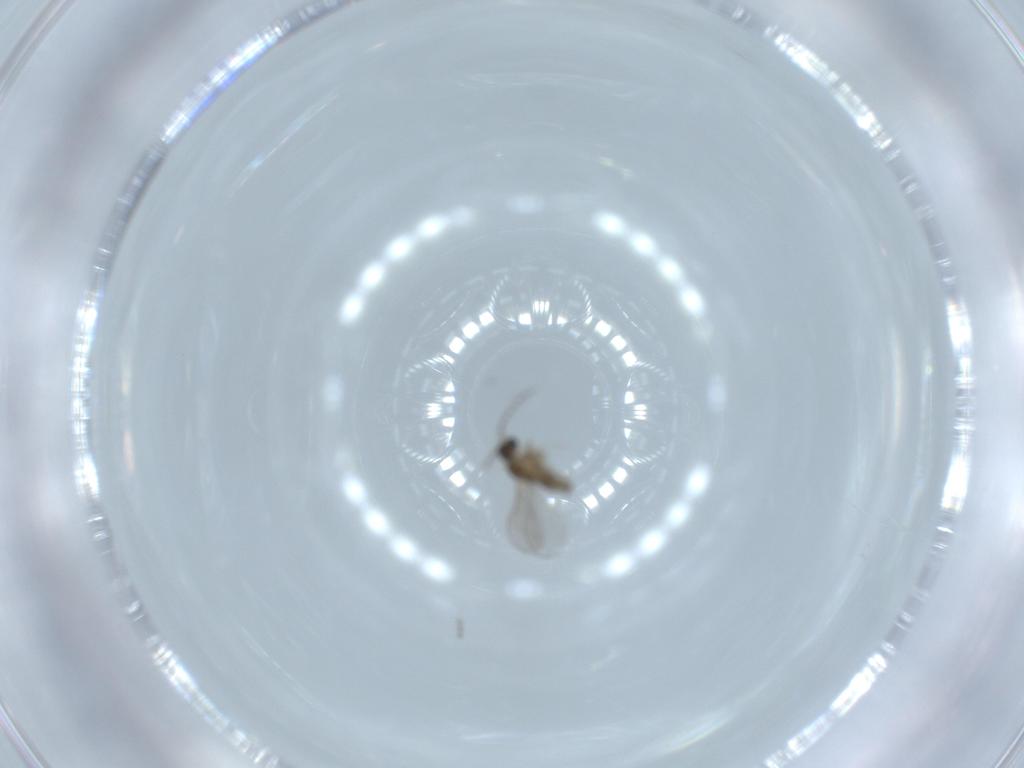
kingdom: Animalia
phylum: Arthropoda
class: Insecta
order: Diptera
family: Cecidomyiidae
